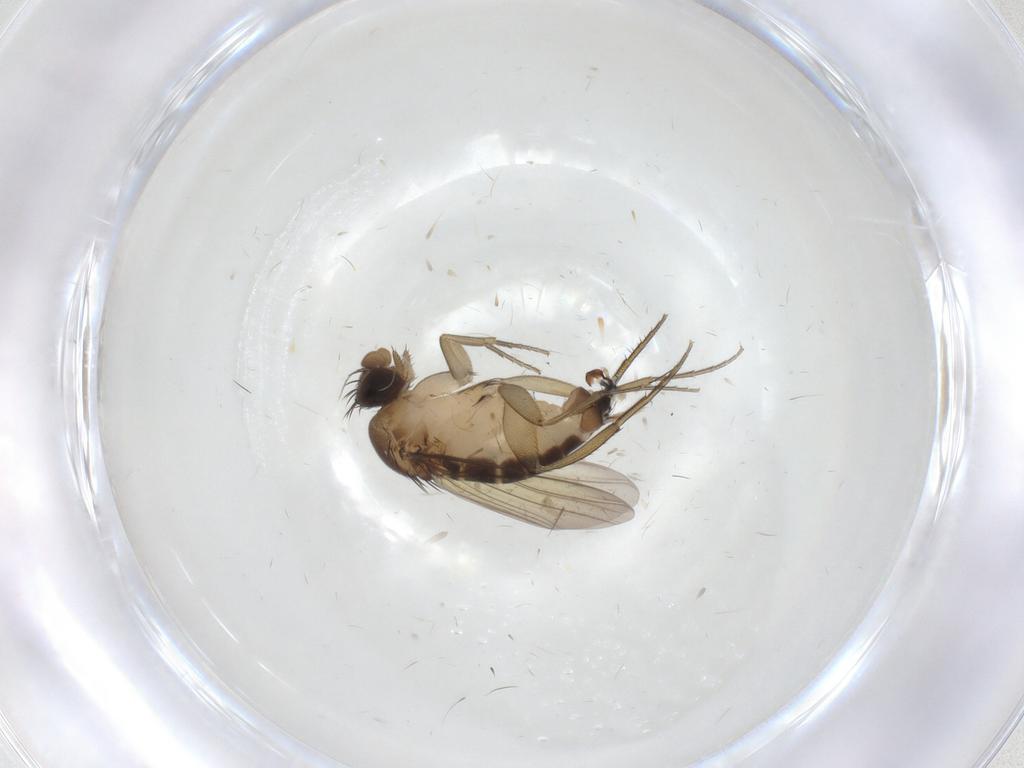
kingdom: Animalia
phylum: Arthropoda
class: Insecta
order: Diptera
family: Phoridae
